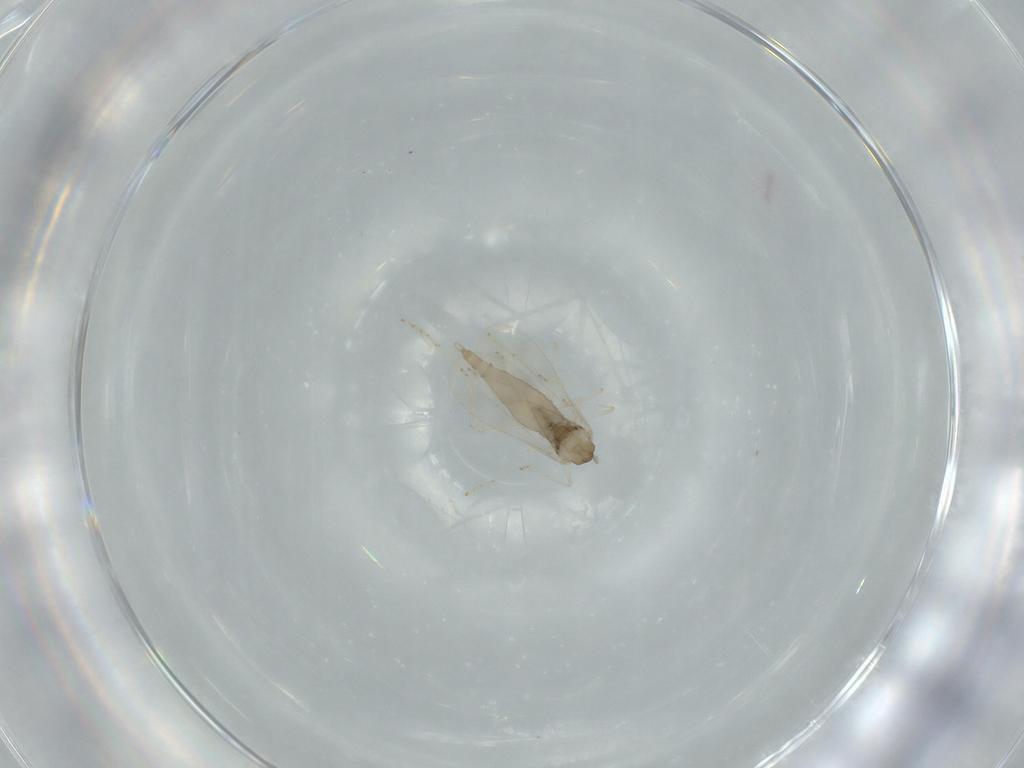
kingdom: Animalia
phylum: Arthropoda
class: Insecta
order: Diptera
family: Cecidomyiidae
